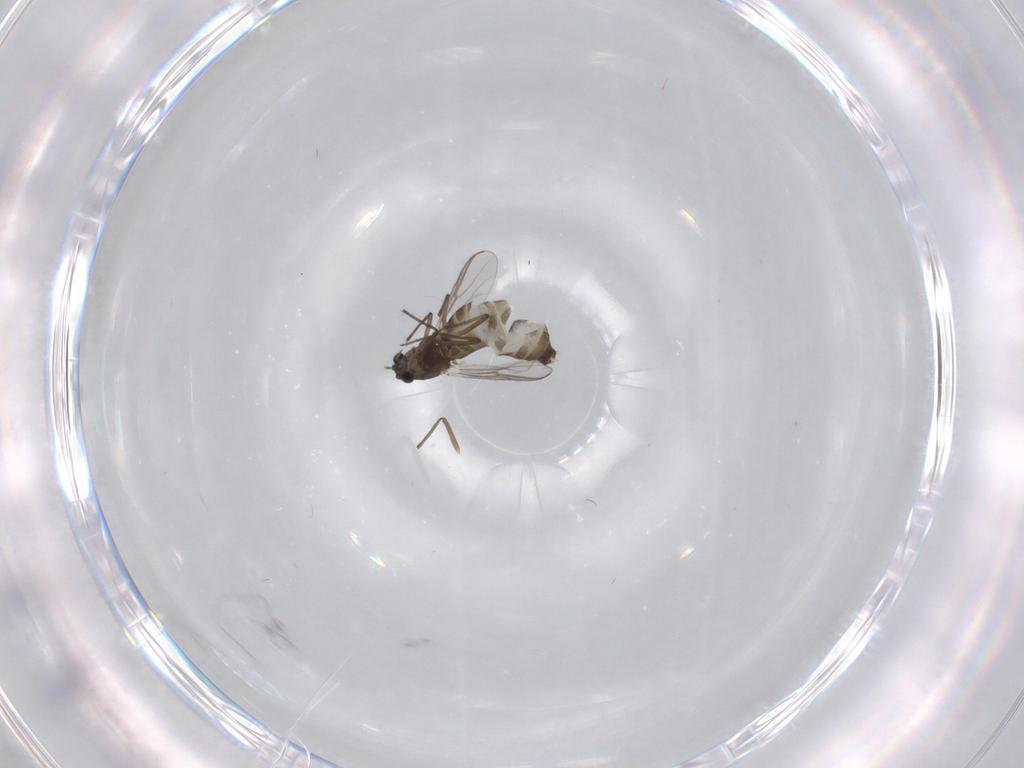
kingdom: Animalia
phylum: Arthropoda
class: Insecta
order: Diptera
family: Chironomidae
